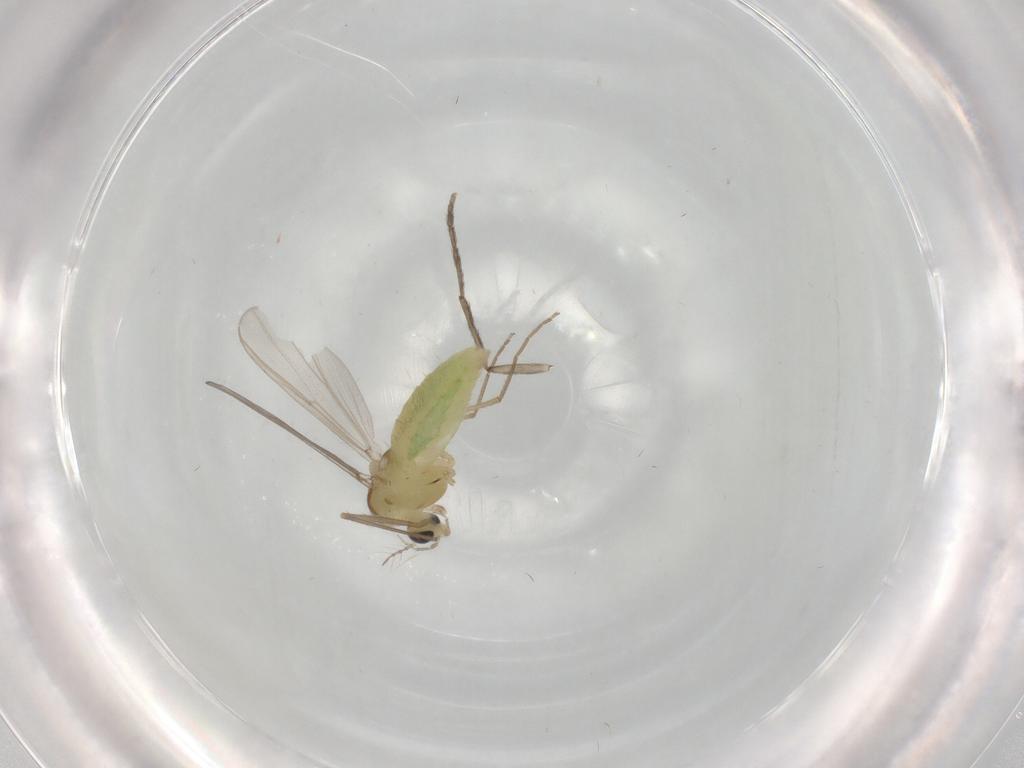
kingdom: Animalia
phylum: Arthropoda
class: Insecta
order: Diptera
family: Chironomidae
